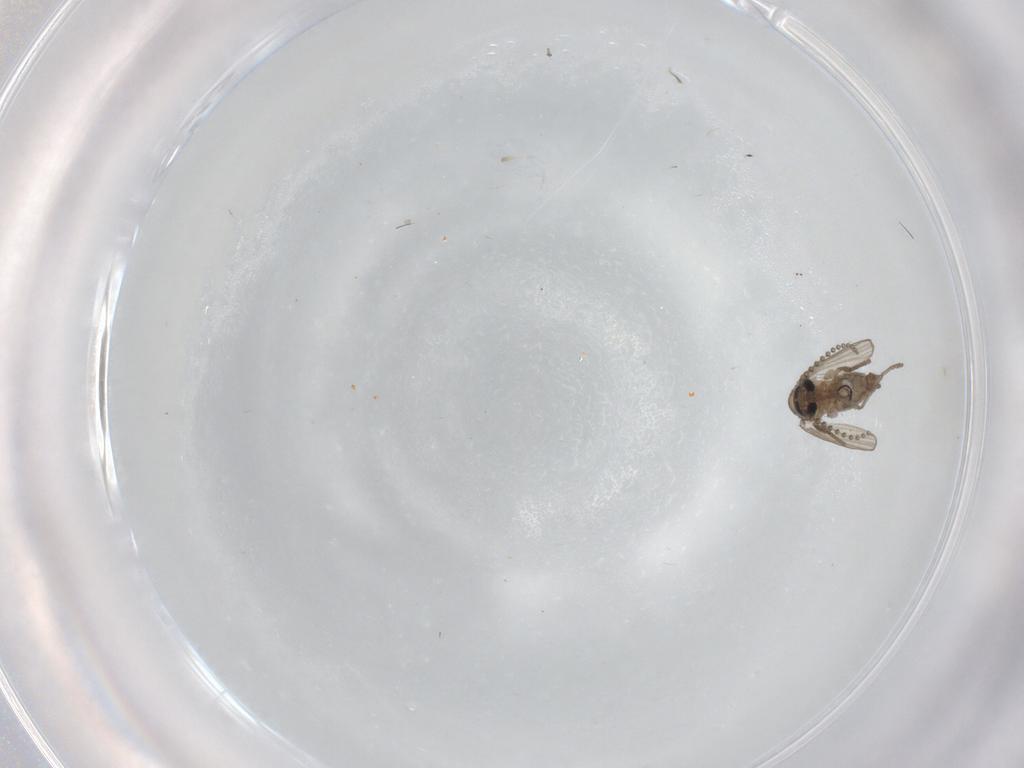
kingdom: Animalia
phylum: Arthropoda
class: Insecta
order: Diptera
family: Psychodidae
